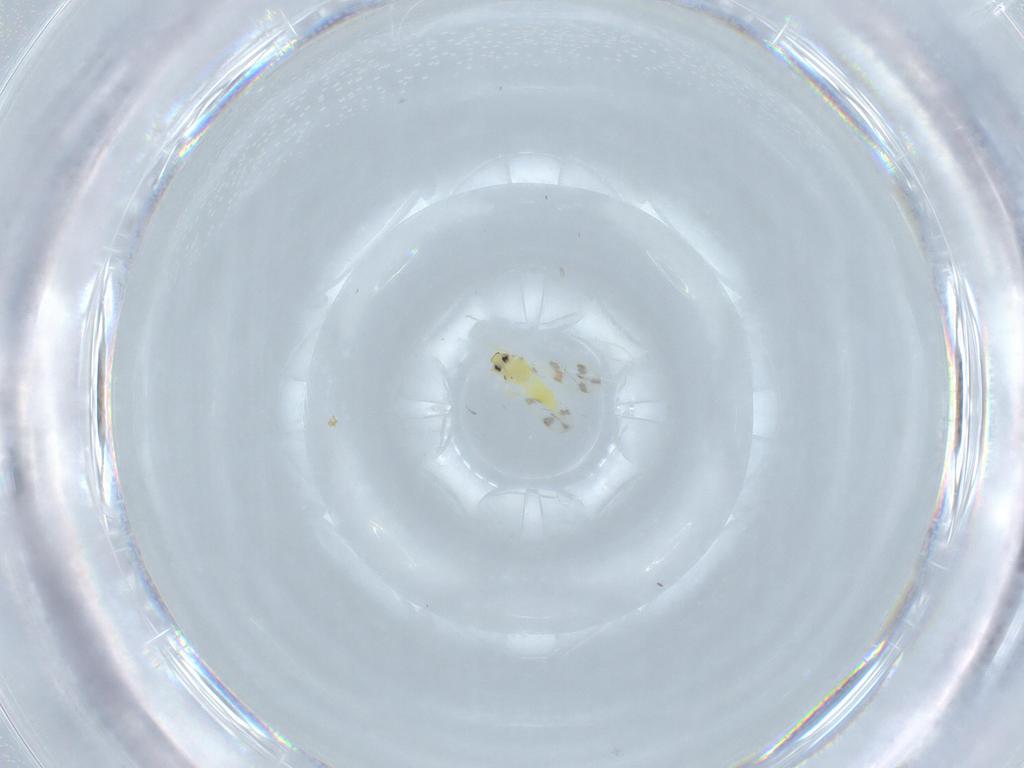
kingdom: Animalia
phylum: Arthropoda
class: Insecta
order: Hemiptera
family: Aleyrodidae
